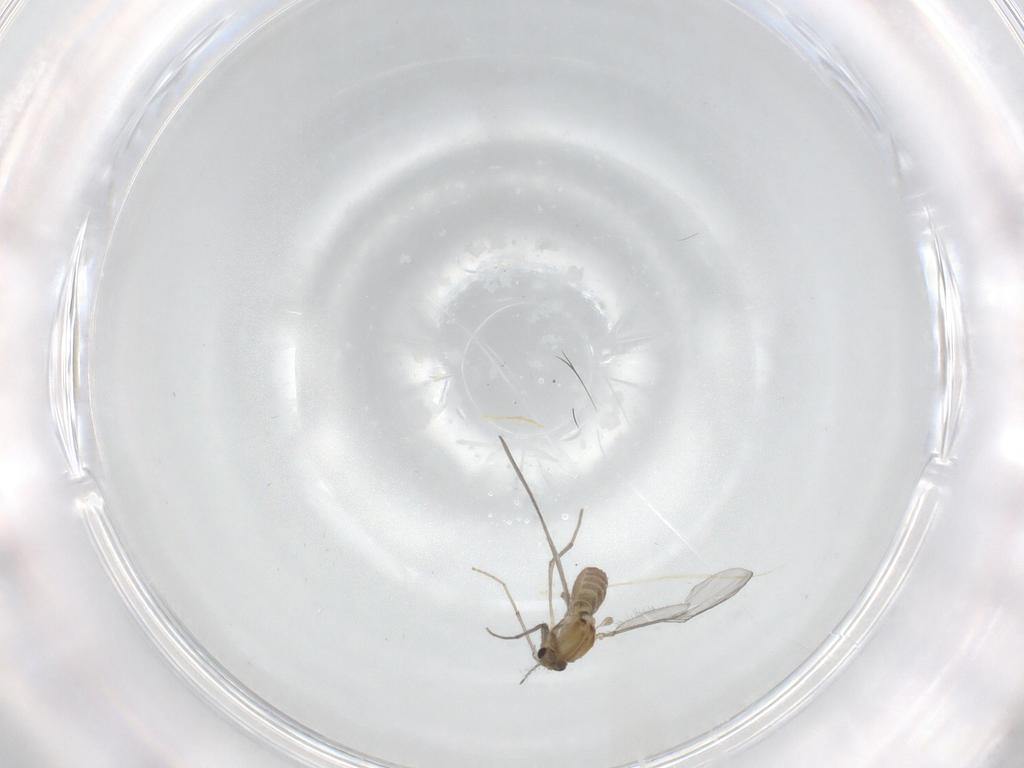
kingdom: Animalia
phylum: Arthropoda
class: Insecta
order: Diptera
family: Chironomidae
